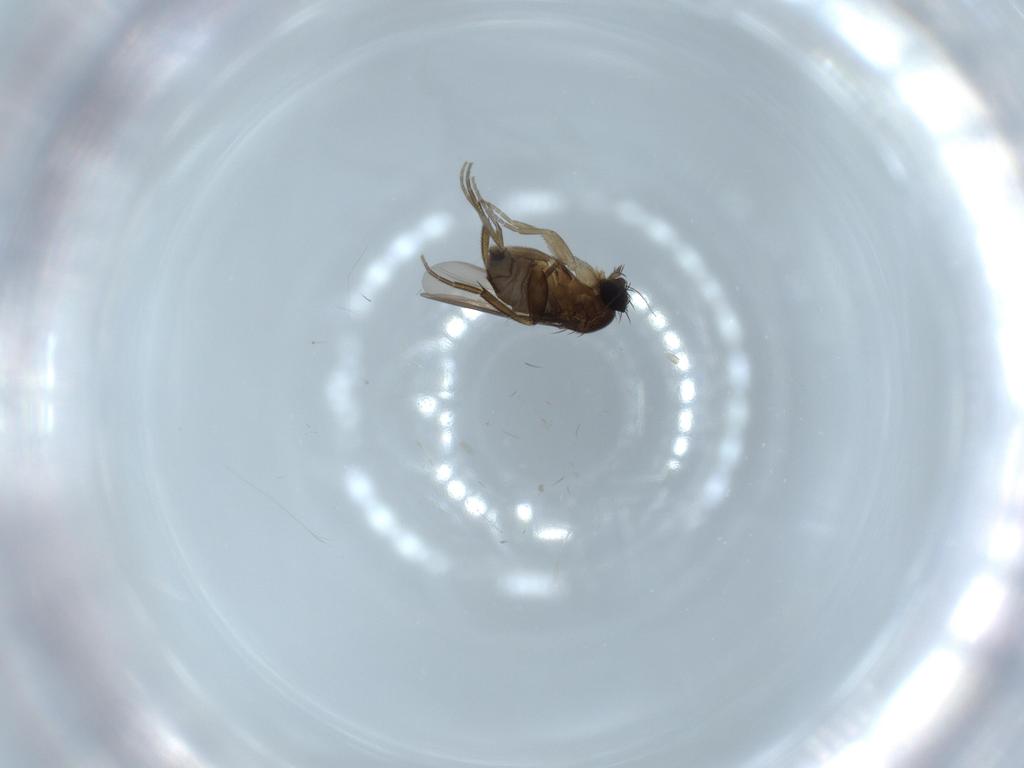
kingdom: Animalia
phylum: Arthropoda
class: Insecta
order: Diptera
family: Phoridae
